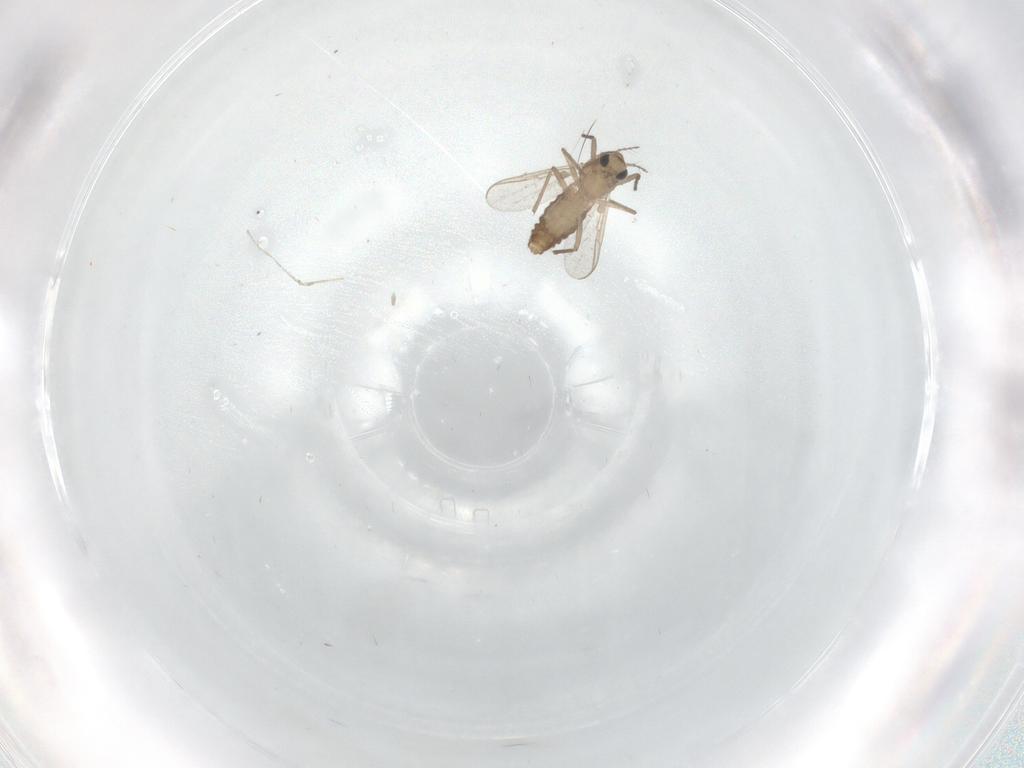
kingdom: Animalia
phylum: Arthropoda
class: Insecta
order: Diptera
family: Chironomidae
